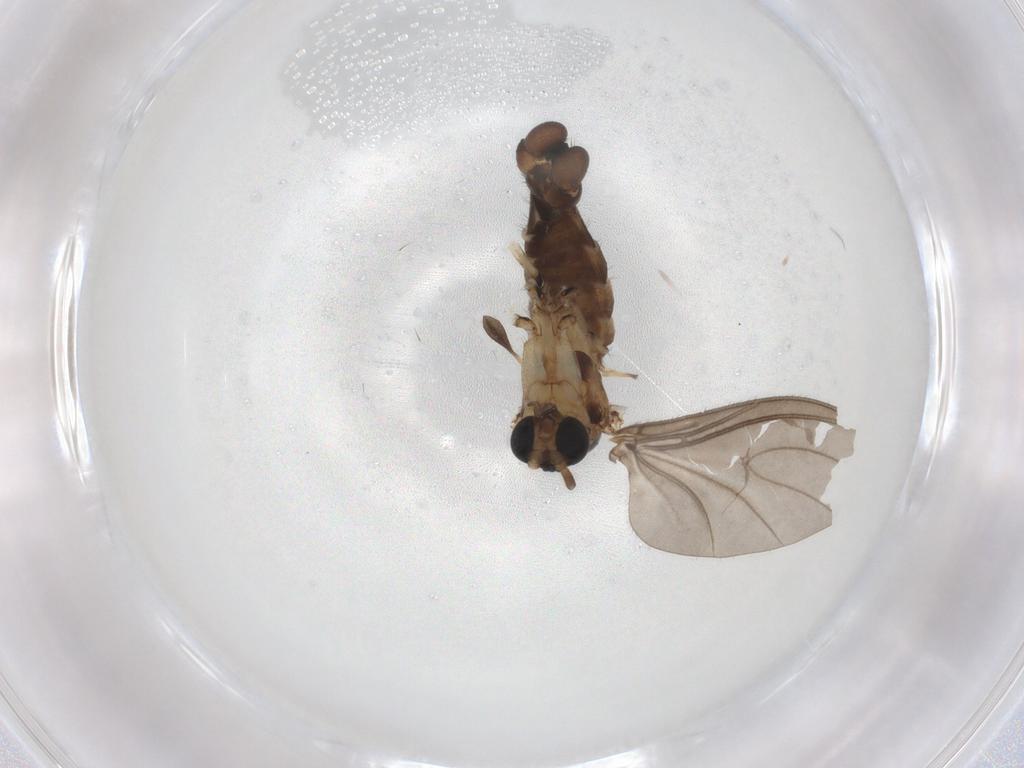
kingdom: Animalia
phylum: Arthropoda
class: Insecta
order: Diptera
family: Sciaridae
